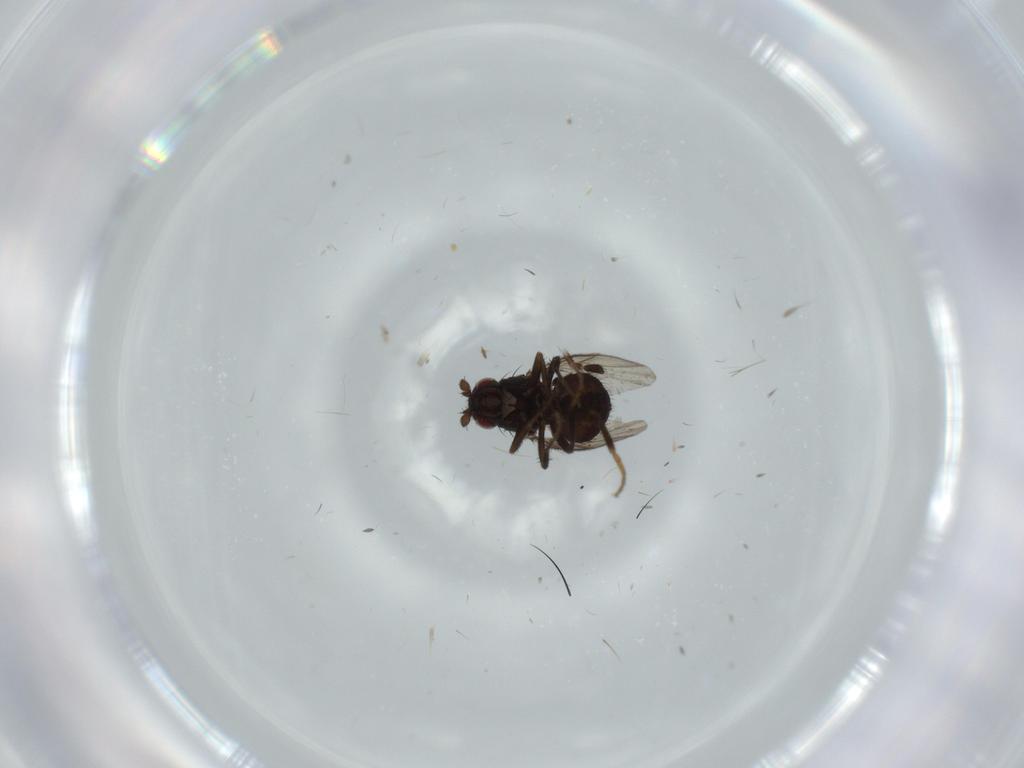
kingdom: Animalia
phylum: Arthropoda
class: Insecta
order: Diptera
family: Sphaeroceridae
